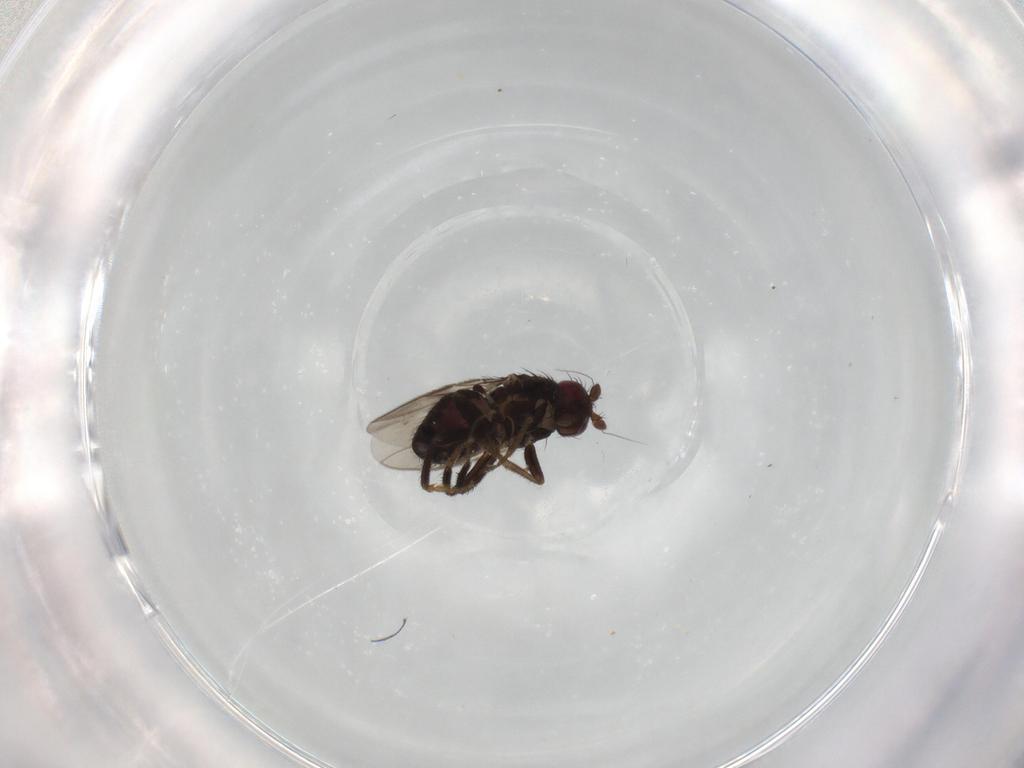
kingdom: Animalia
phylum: Arthropoda
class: Insecta
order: Diptera
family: Sphaeroceridae
